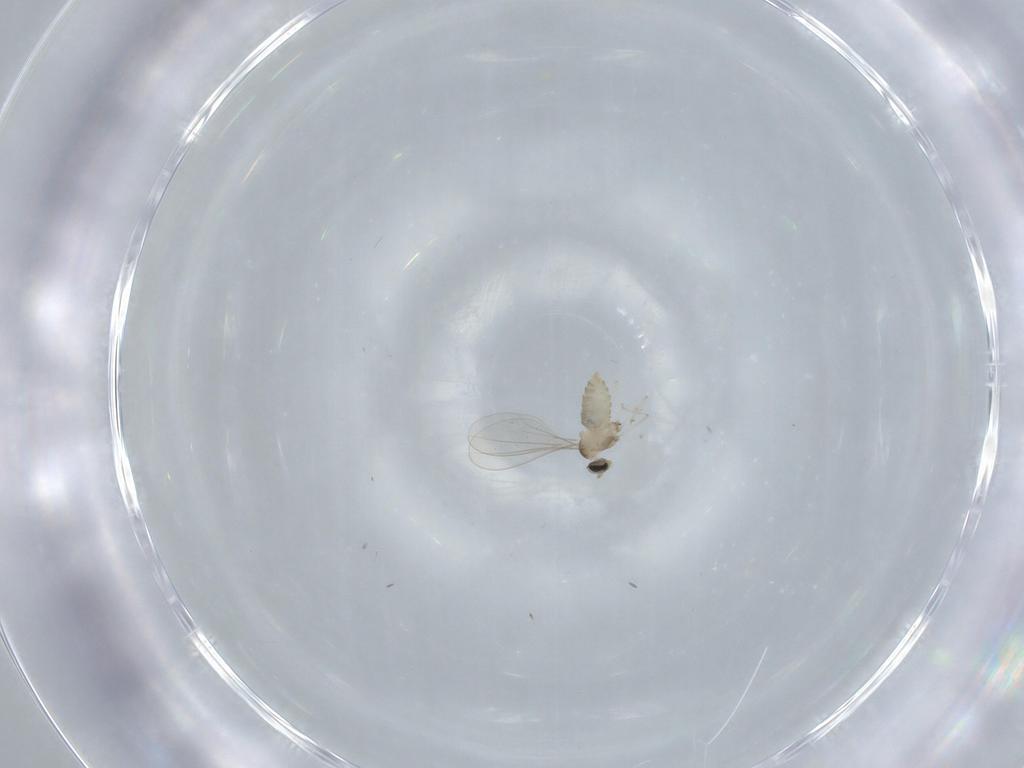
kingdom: Animalia
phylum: Arthropoda
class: Insecta
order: Diptera
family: Cecidomyiidae
